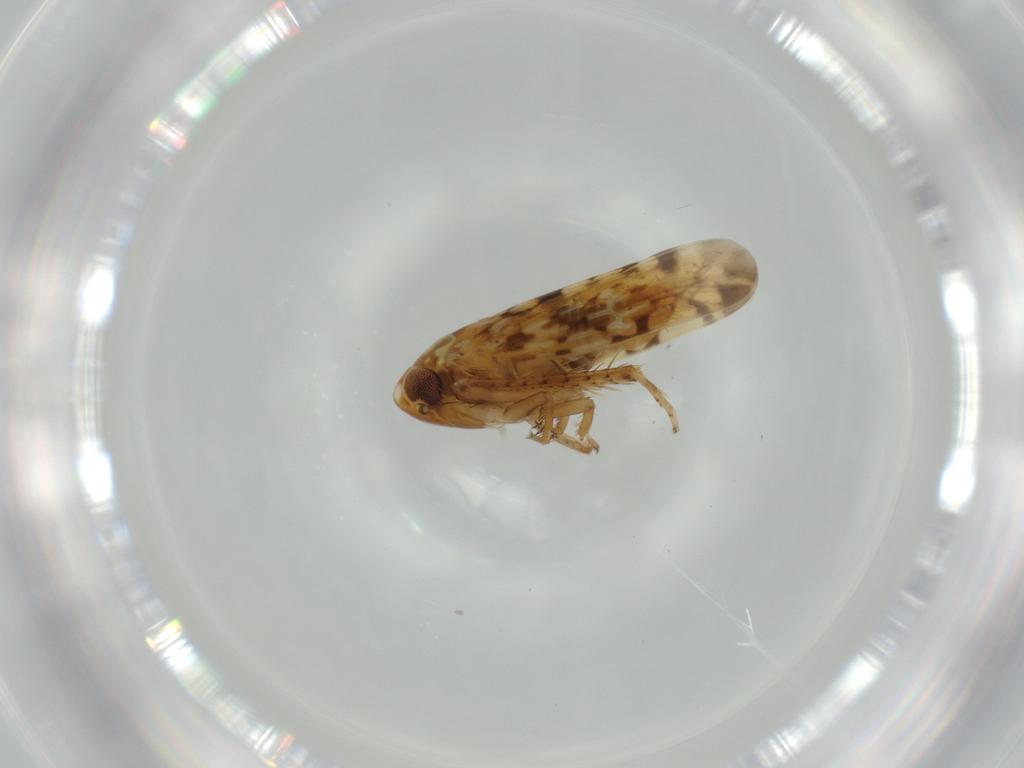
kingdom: Animalia
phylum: Arthropoda
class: Insecta
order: Hemiptera
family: Cicadellidae
